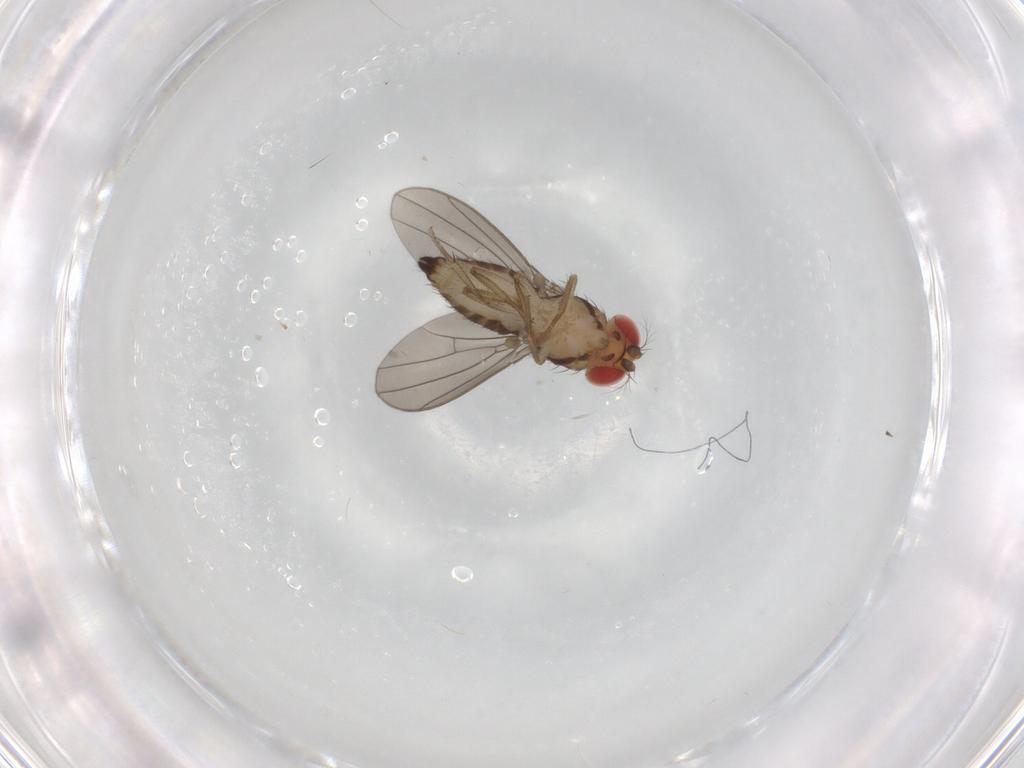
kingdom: Animalia
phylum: Arthropoda
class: Insecta
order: Diptera
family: Drosophilidae
